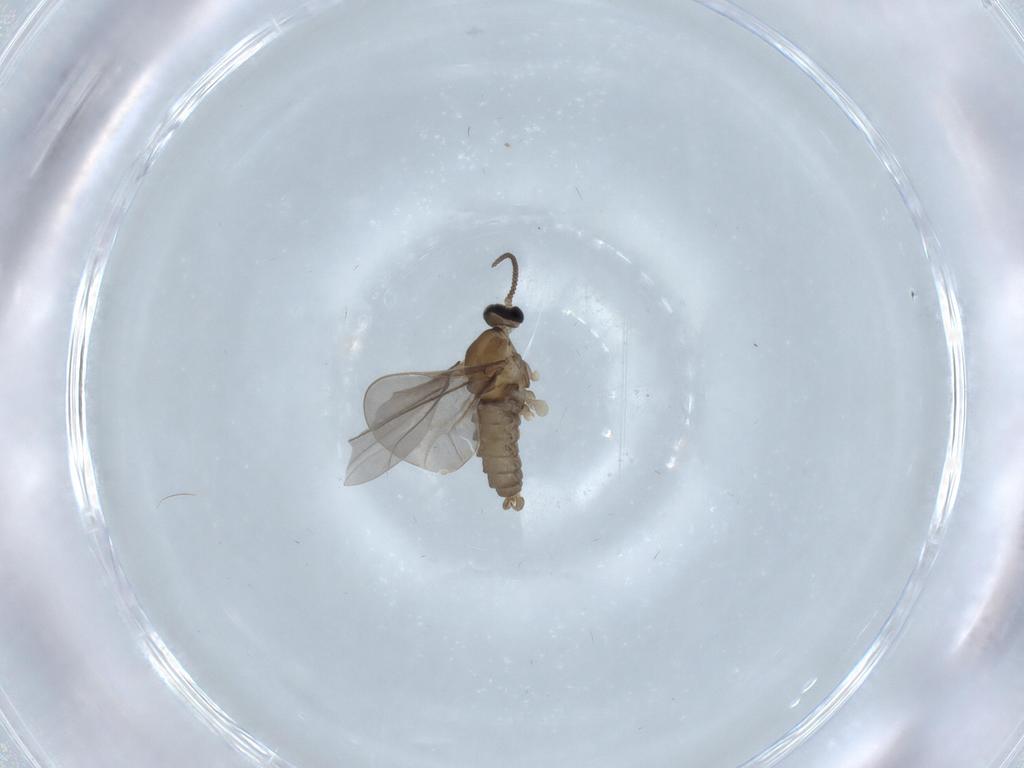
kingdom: Animalia
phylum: Arthropoda
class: Insecta
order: Diptera
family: Cecidomyiidae
